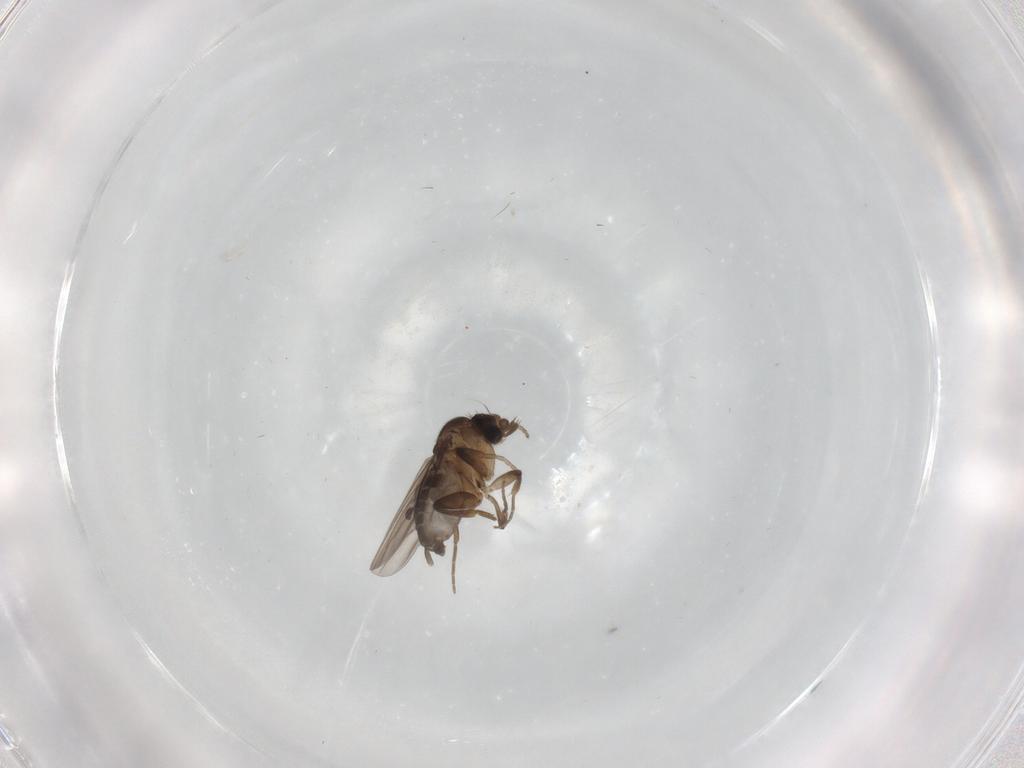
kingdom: Animalia
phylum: Arthropoda
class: Insecta
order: Diptera
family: Phoridae
